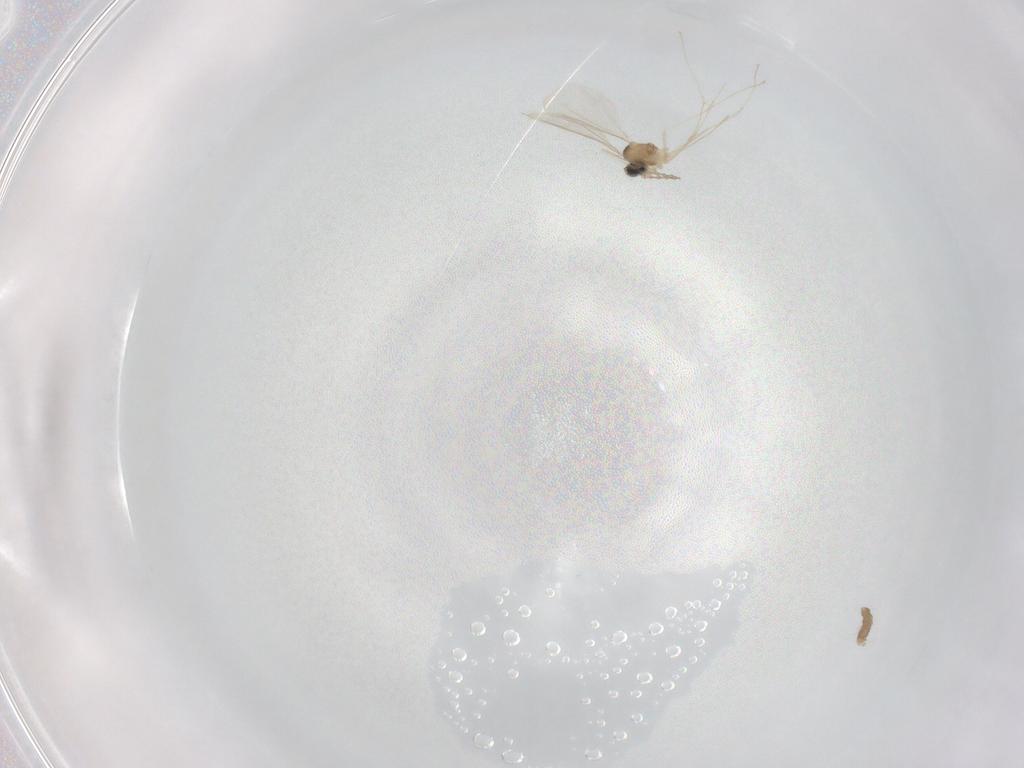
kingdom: Animalia
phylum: Arthropoda
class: Insecta
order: Diptera
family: Cecidomyiidae
